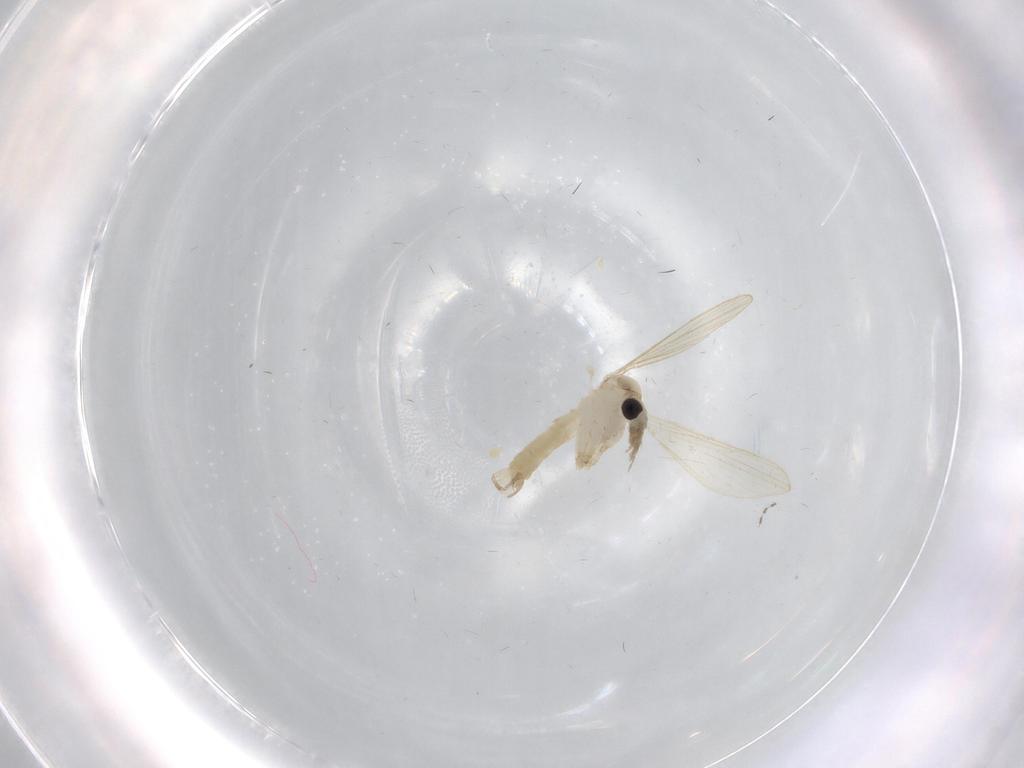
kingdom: Animalia
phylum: Arthropoda
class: Insecta
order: Diptera
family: Psychodidae
